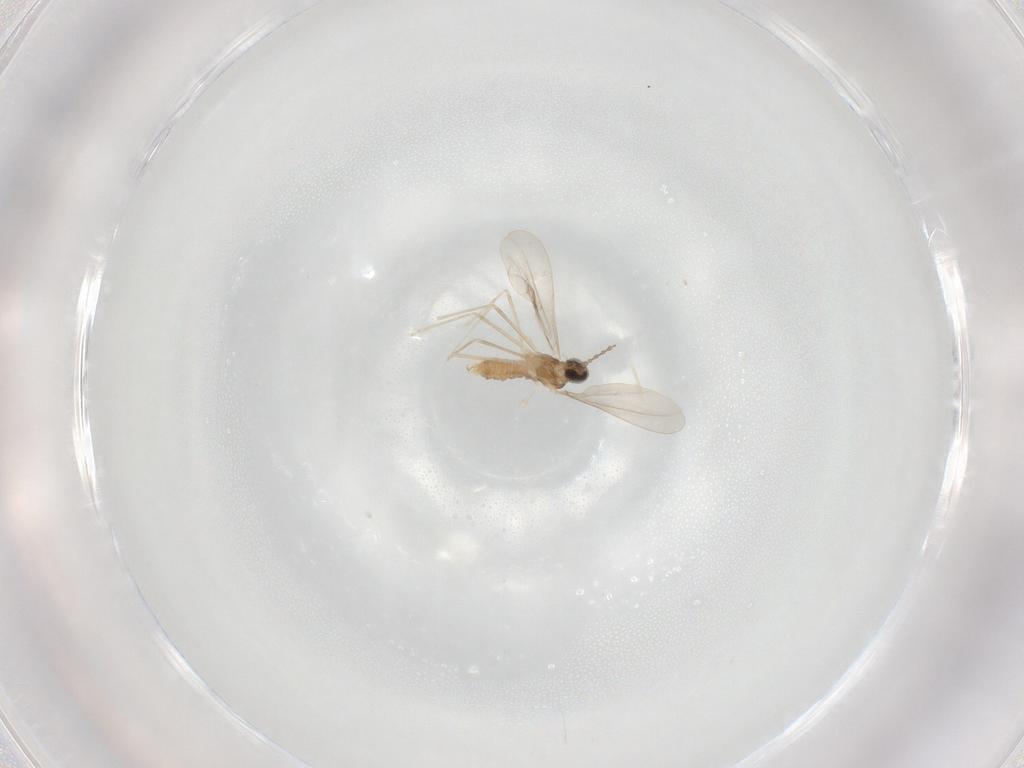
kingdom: Animalia
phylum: Arthropoda
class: Insecta
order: Diptera
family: Cecidomyiidae
